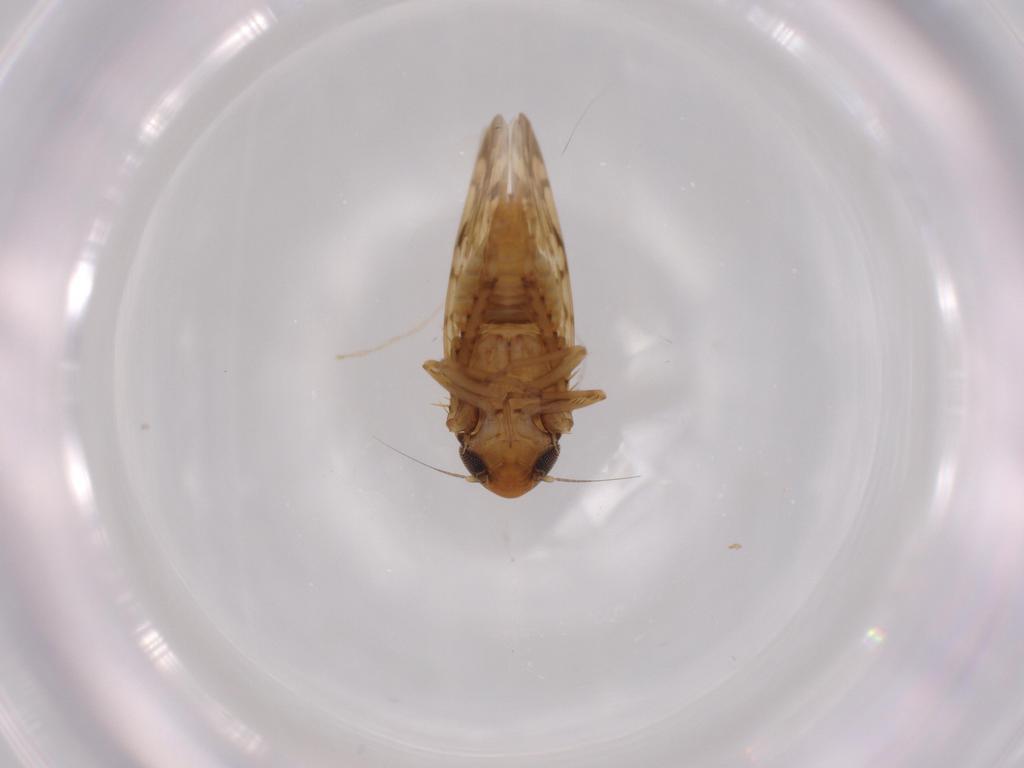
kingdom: Animalia
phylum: Arthropoda
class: Insecta
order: Hemiptera
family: Cicadellidae
